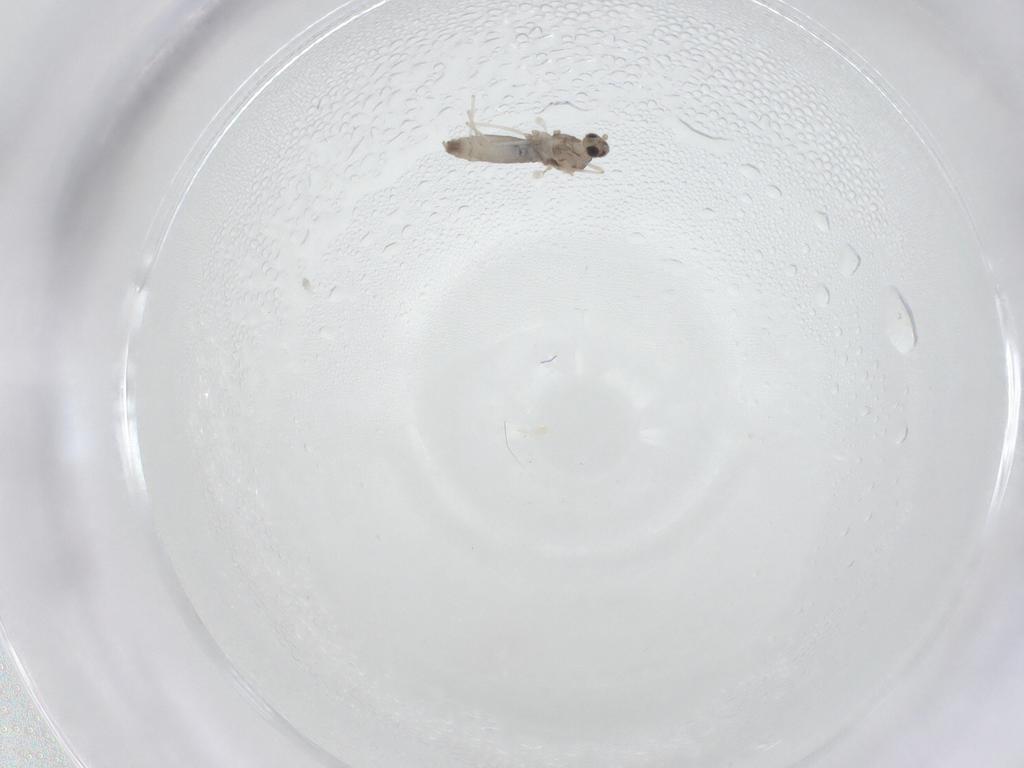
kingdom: Animalia
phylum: Arthropoda
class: Insecta
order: Diptera
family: Cecidomyiidae
